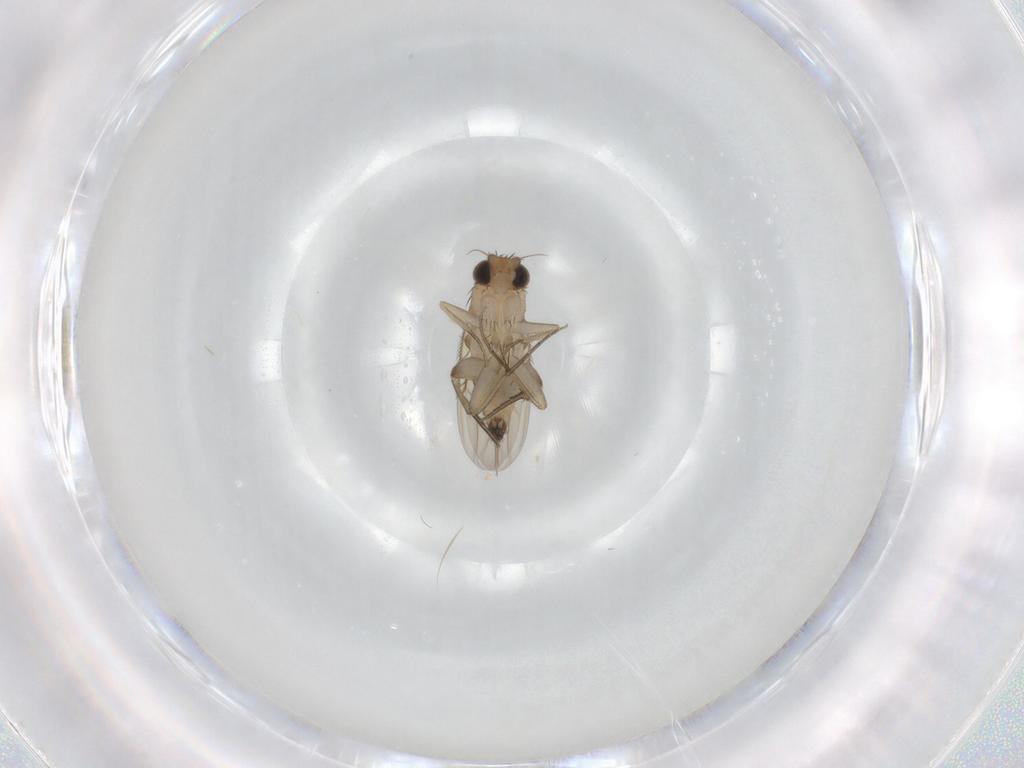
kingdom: Animalia
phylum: Arthropoda
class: Insecta
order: Diptera
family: Phoridae
